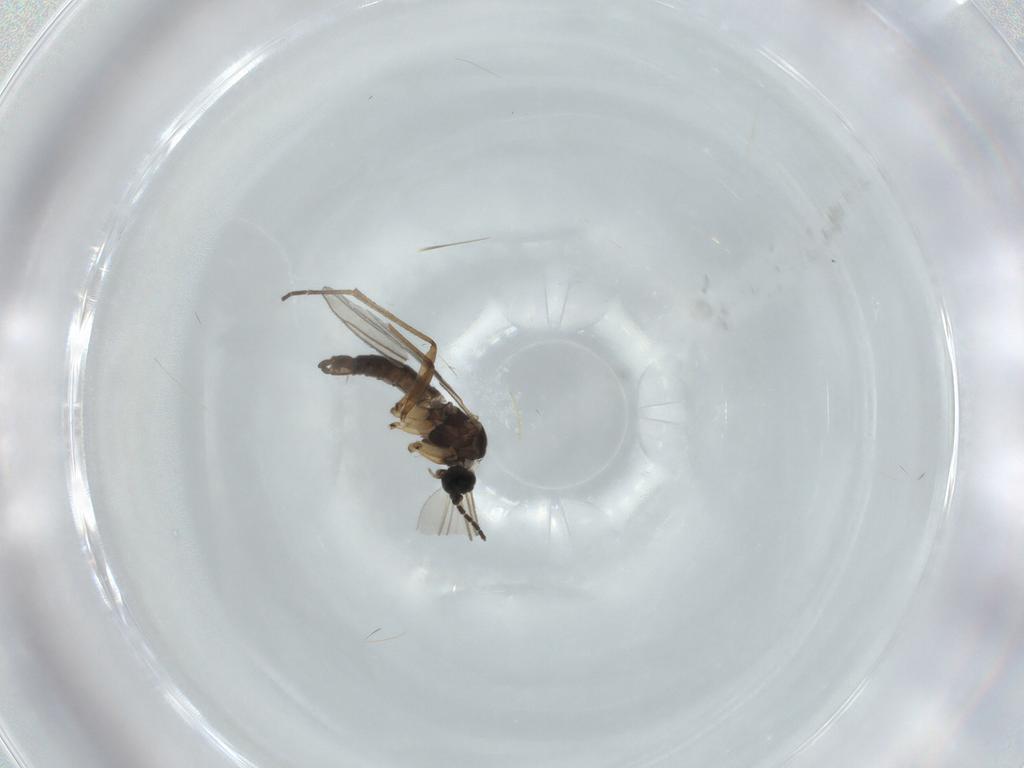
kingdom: Animalia
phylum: Arthropoda
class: Insecta
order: Diptera
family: Sciaridae
